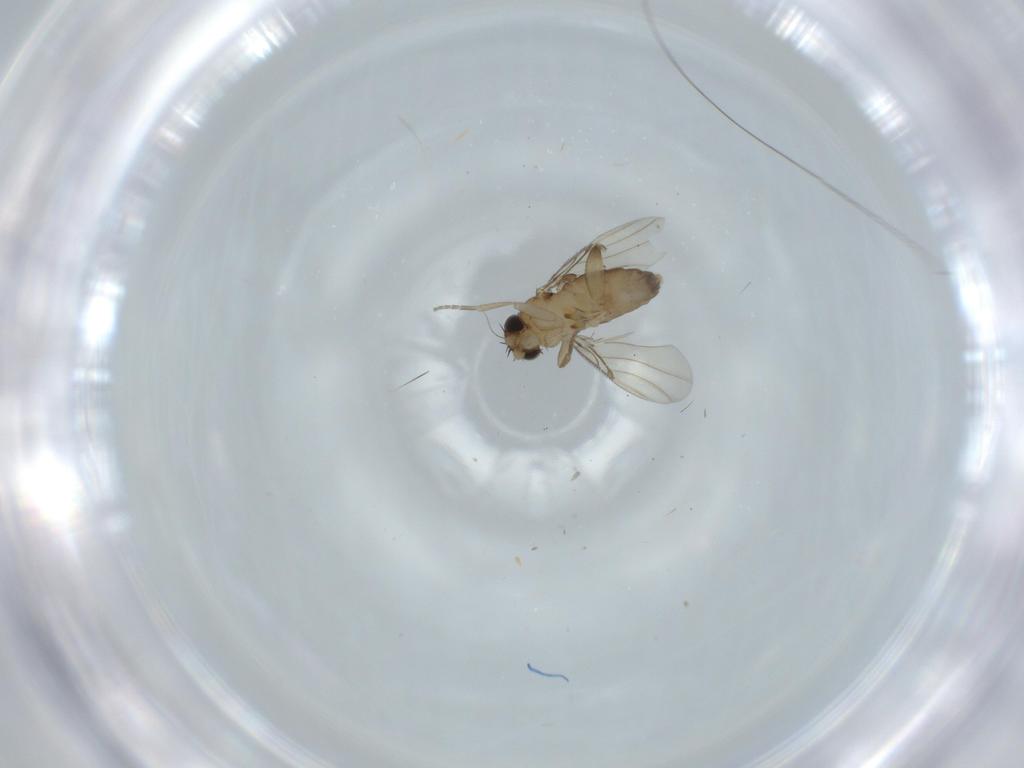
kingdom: Animalia
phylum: Arthropoda
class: Insecta
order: Diptera
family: Phoridae
